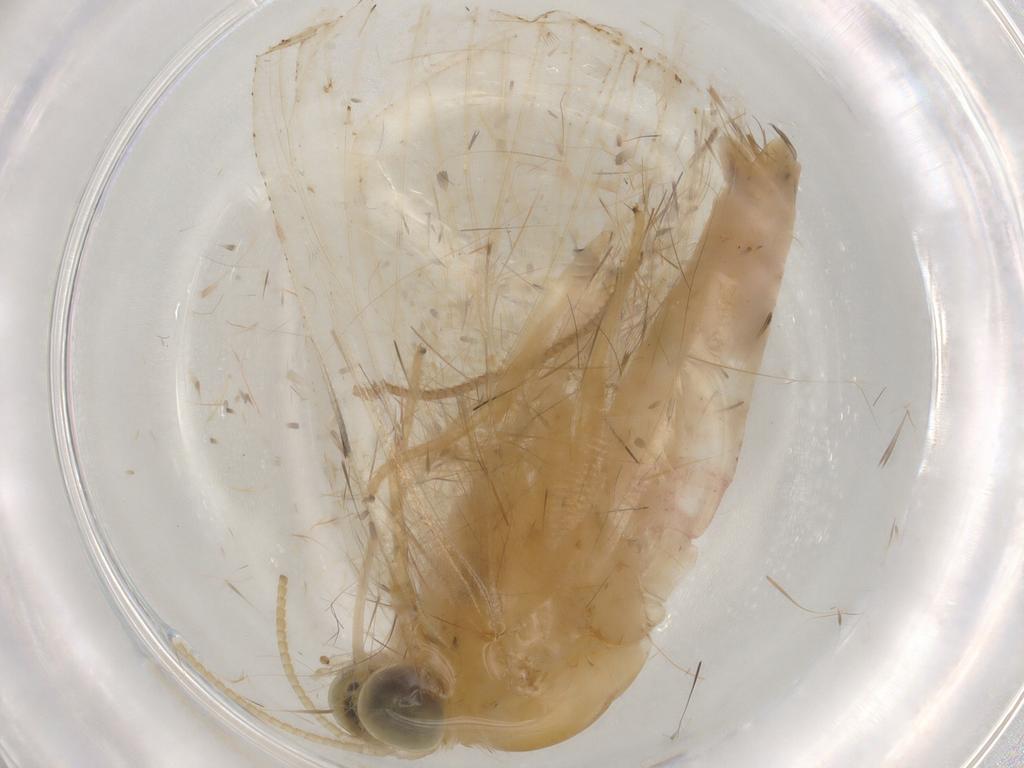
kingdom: Animalia
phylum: Arthropoda
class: Insecta
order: Lepidoptera
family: Geometridae
